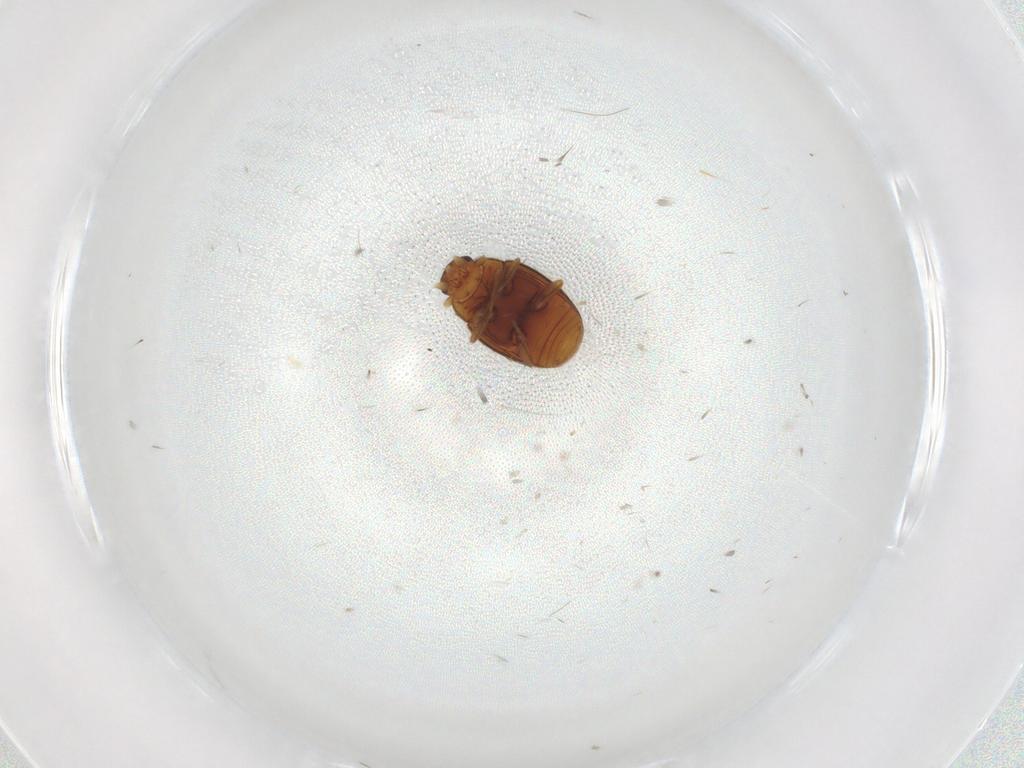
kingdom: Animalia
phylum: Arthropoda
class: Insecta
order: Coleoptera
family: Coccinellidae
